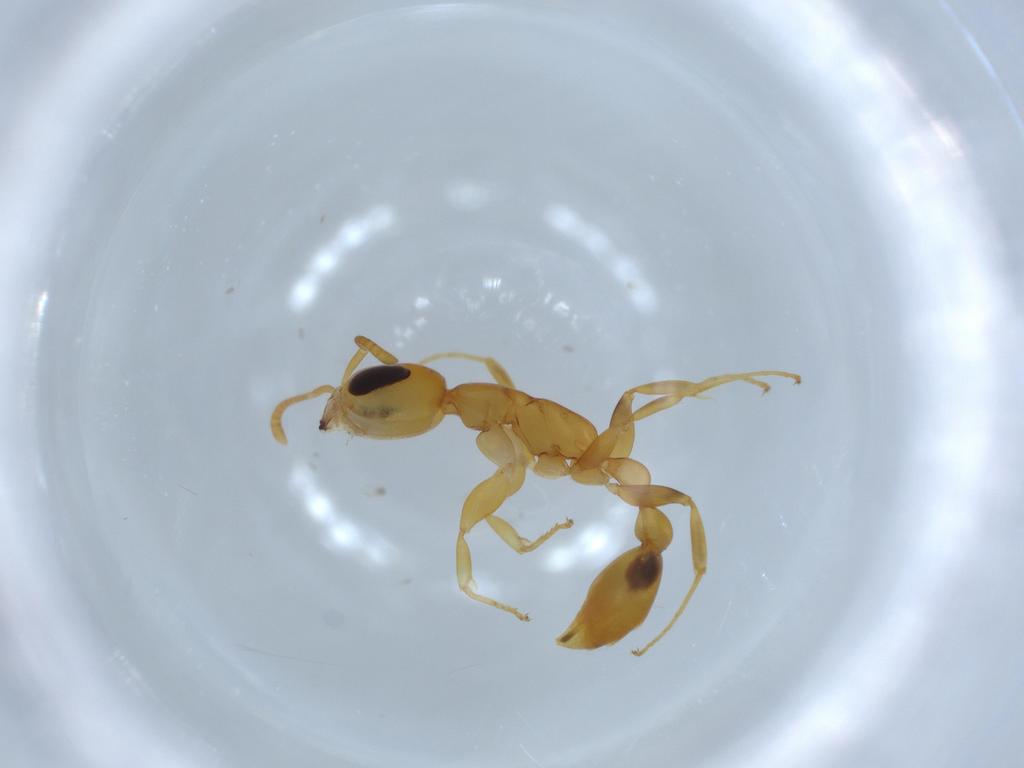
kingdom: Animalia
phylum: Arthropoda
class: Insecta
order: Hymenoptera
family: Formicidae
